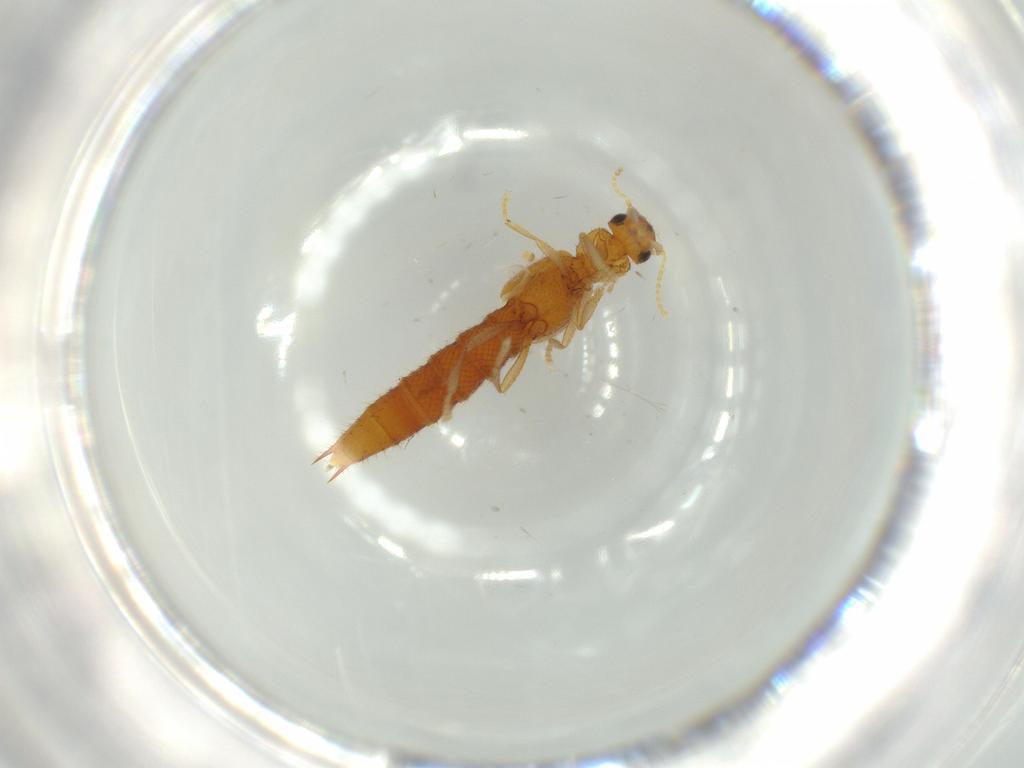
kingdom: Animalia
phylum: Arthropoda
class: Insecta
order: Coleoptera
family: Staphylinidae
